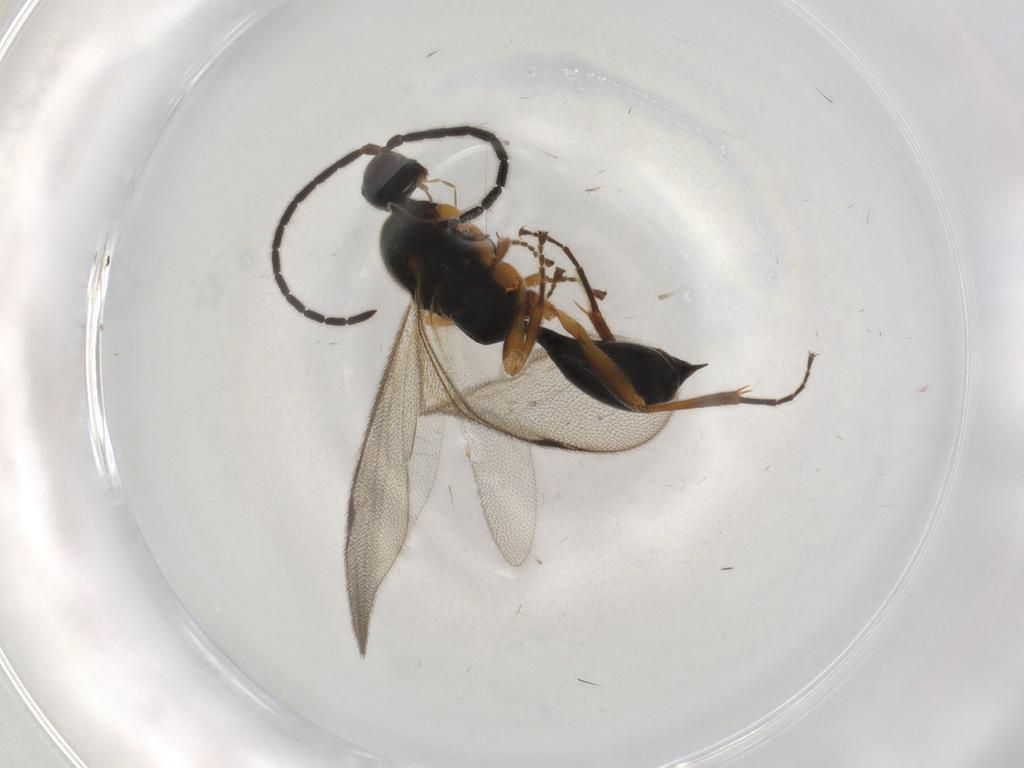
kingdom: Animalia
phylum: Arthropoda
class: Insecta
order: Hymenoptera
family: Proctotrupidae
